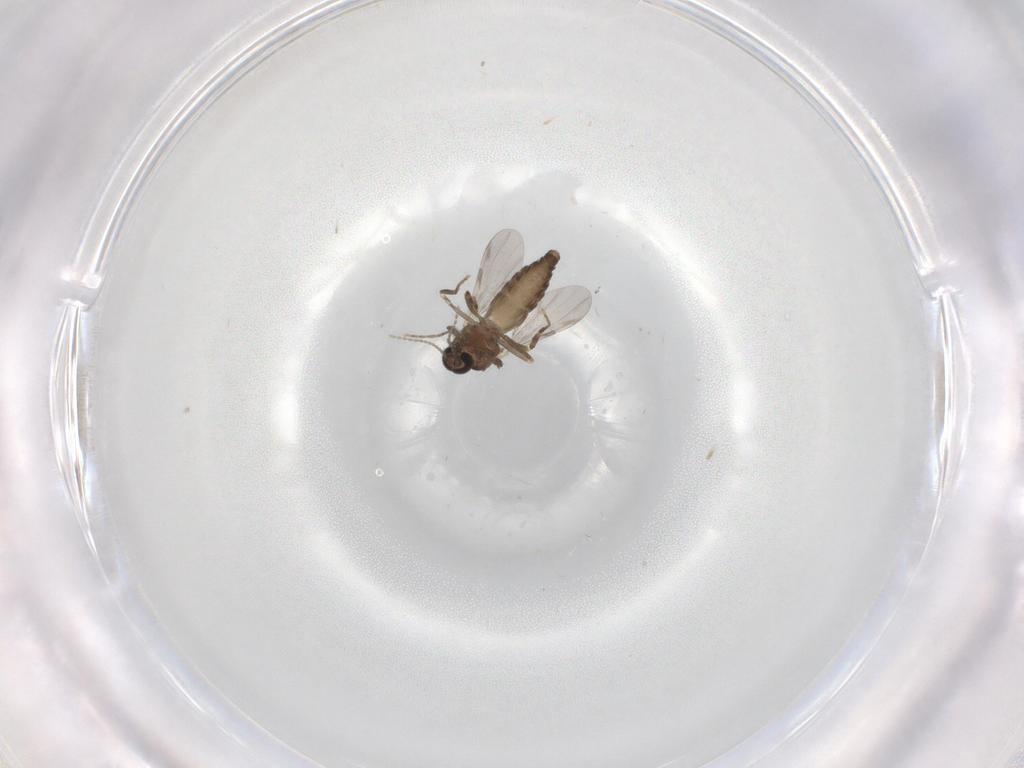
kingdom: Animalia
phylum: Arthropoda
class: Insecta
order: Diptera
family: Ceratopogonidae
